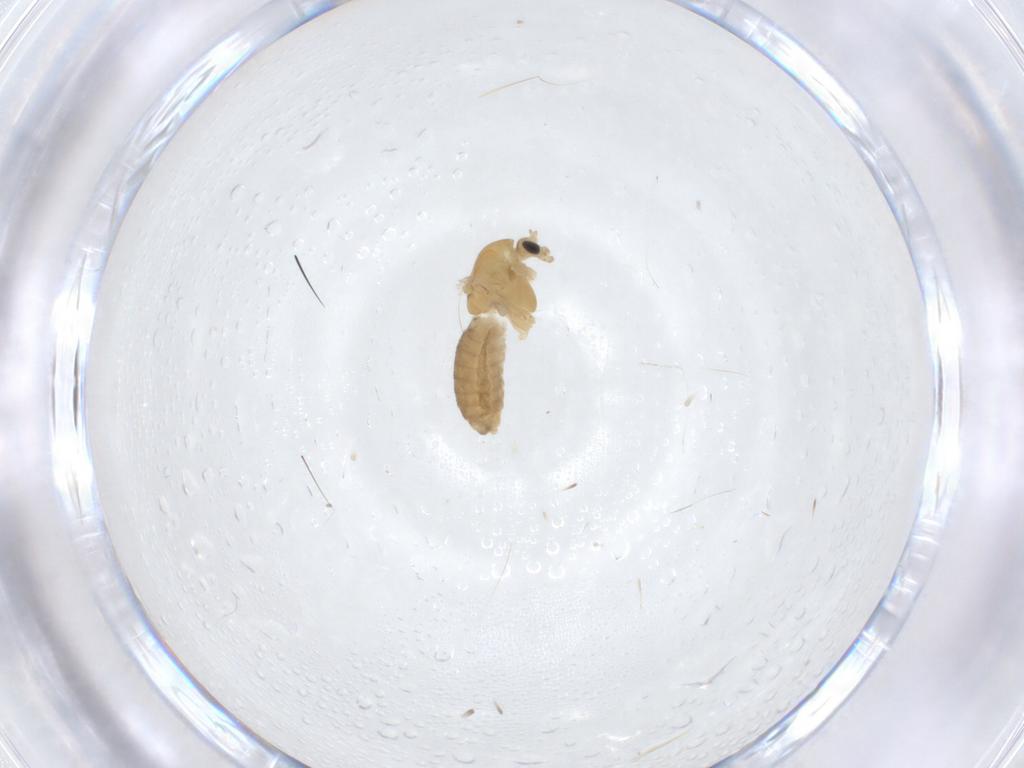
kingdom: Animalia
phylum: Arthropoda
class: Insecta
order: Diptera
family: Chironomidae
